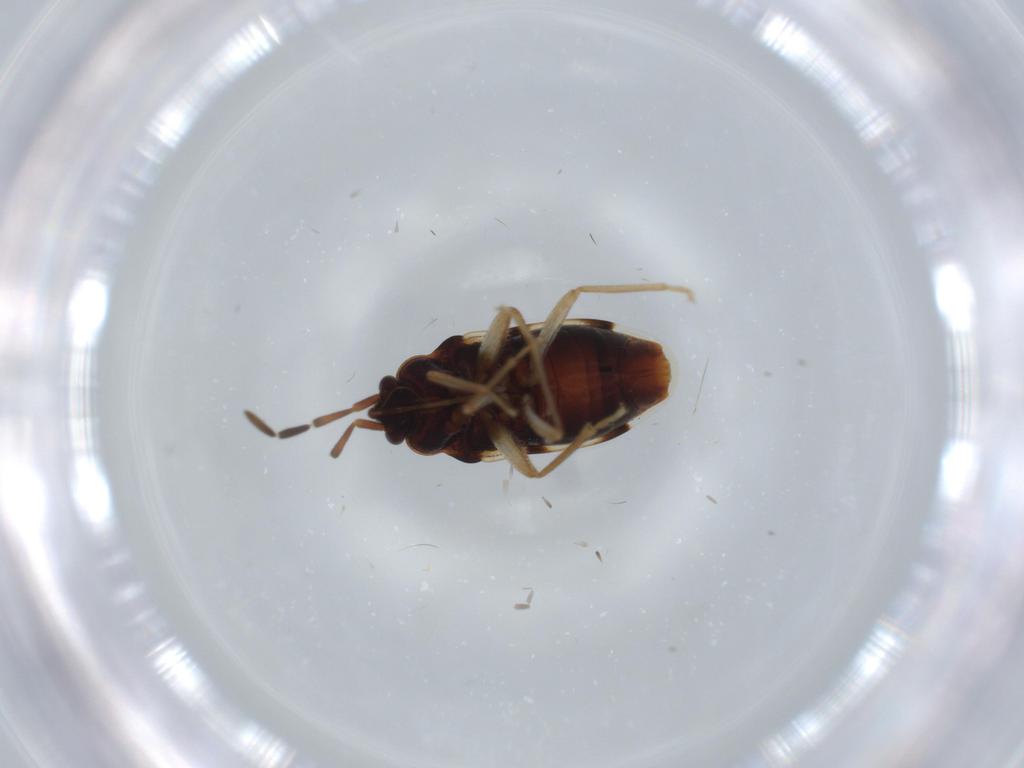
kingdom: Animalia
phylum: Arthropoda
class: Insecta
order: Hemiptera
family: Rhyparochromidae
